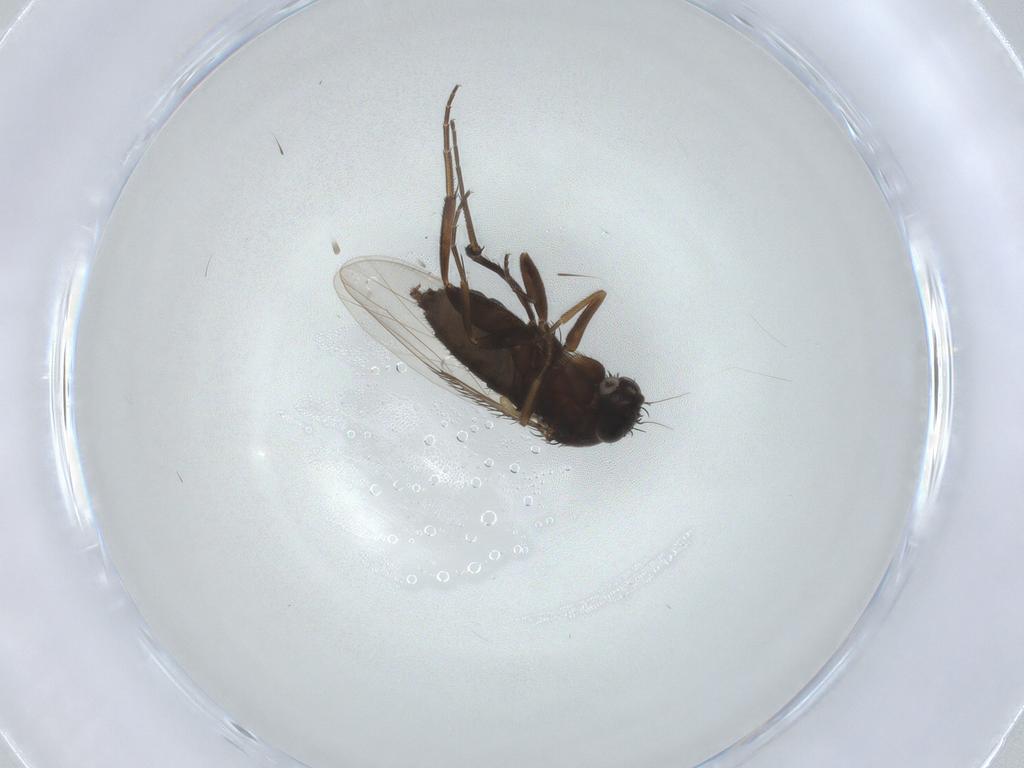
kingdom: Animalia
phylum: Arthropoda
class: Insecta
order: Diptera
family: Phoridae
